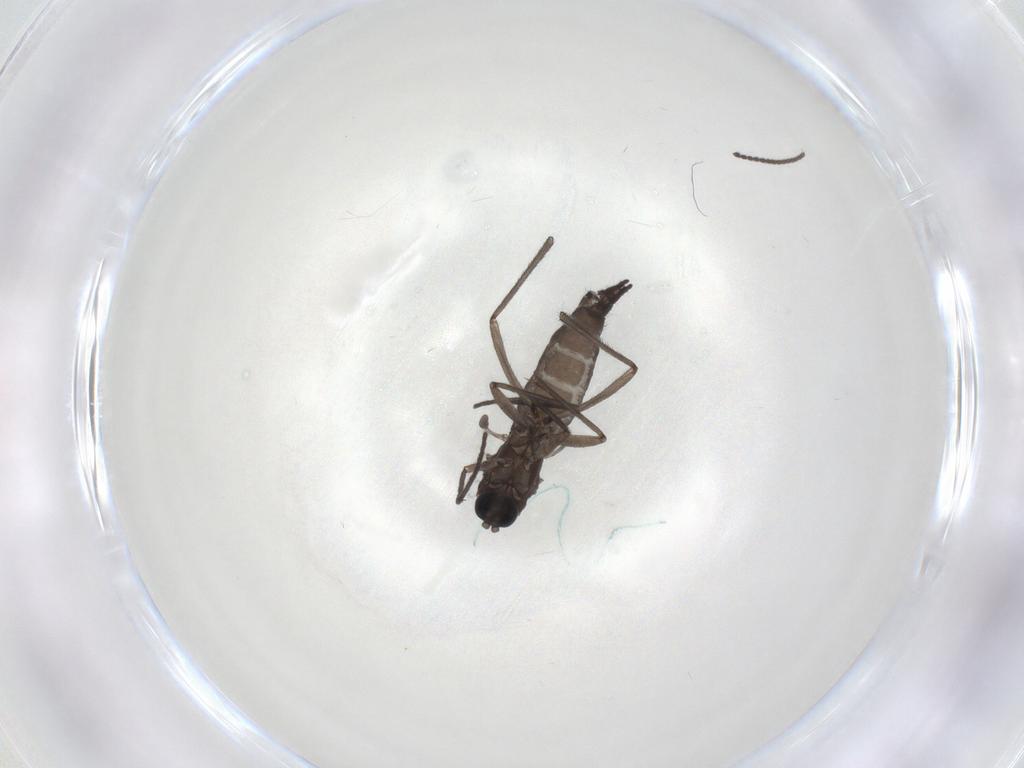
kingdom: Animalia
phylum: Arthropoda
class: Insecta
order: Diptera
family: Sciaridae
